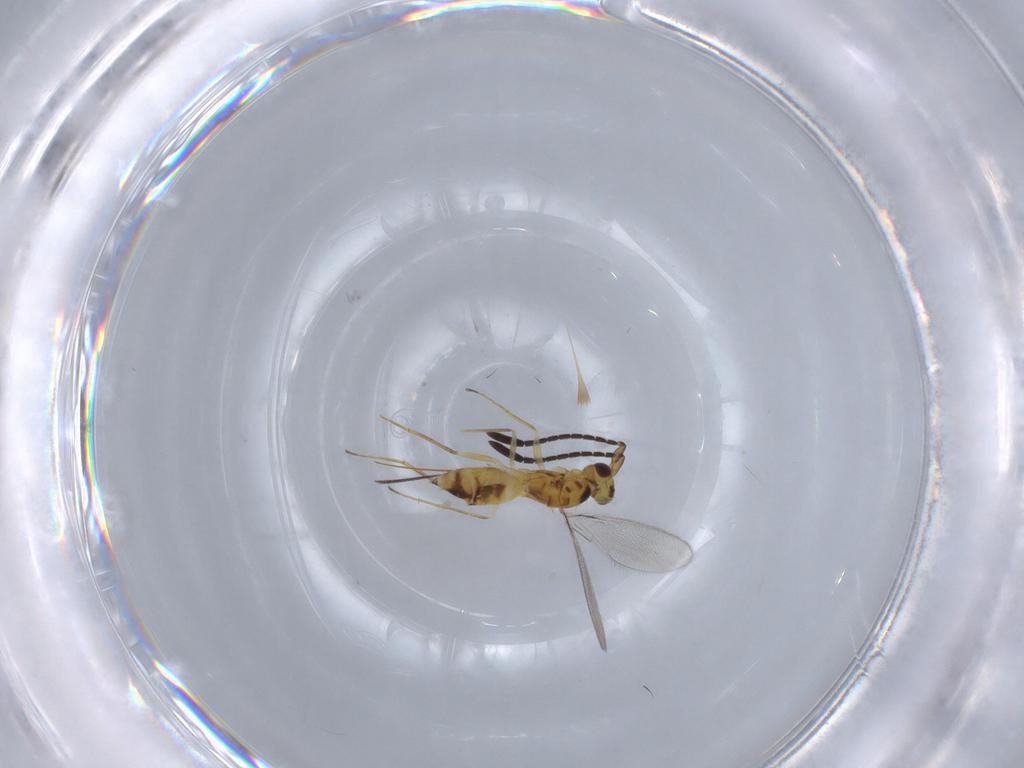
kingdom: Animalia
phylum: Arthropoda
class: Insecta
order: Hymenoptera
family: Mymaridae
